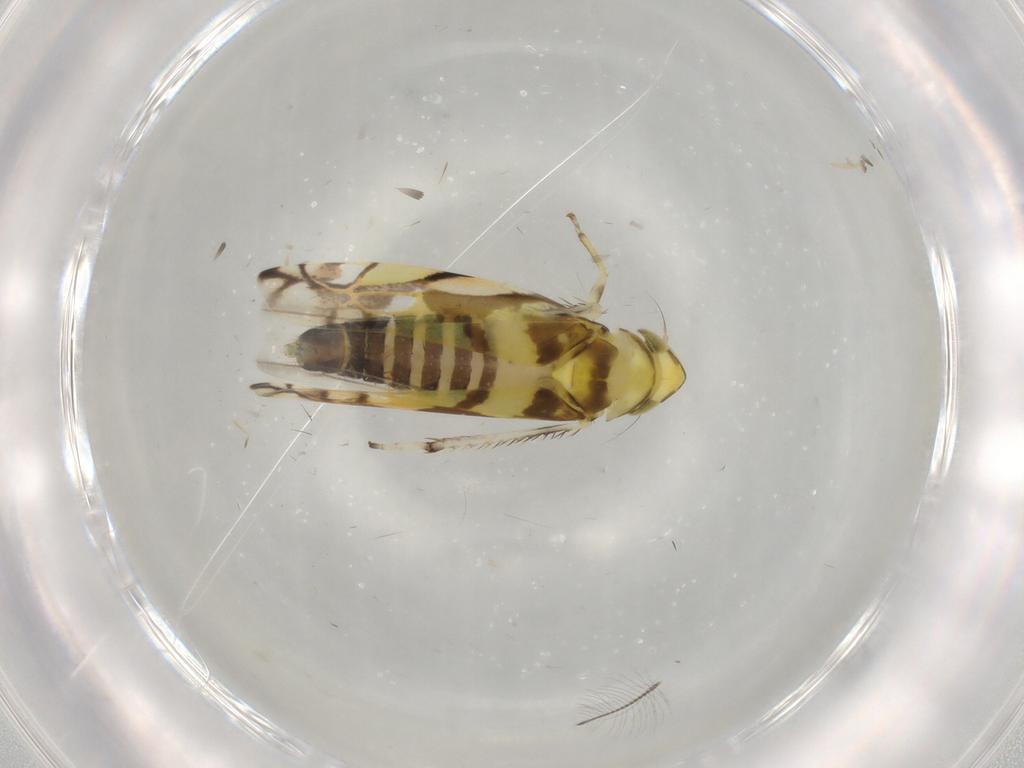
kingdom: Animalia
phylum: Arthropoda
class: Insecta
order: Hemiptera
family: Cicadellidae
